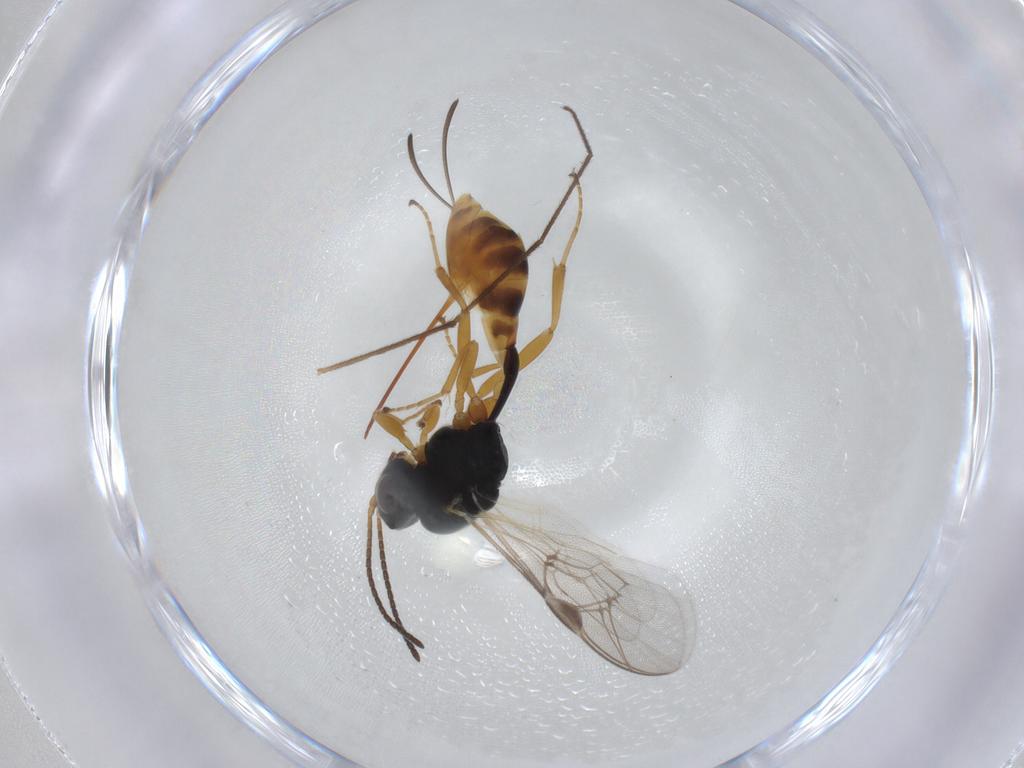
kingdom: Animalia
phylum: Arthropoda
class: Insecta
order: Hymenoptera
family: Ichneumonidae
